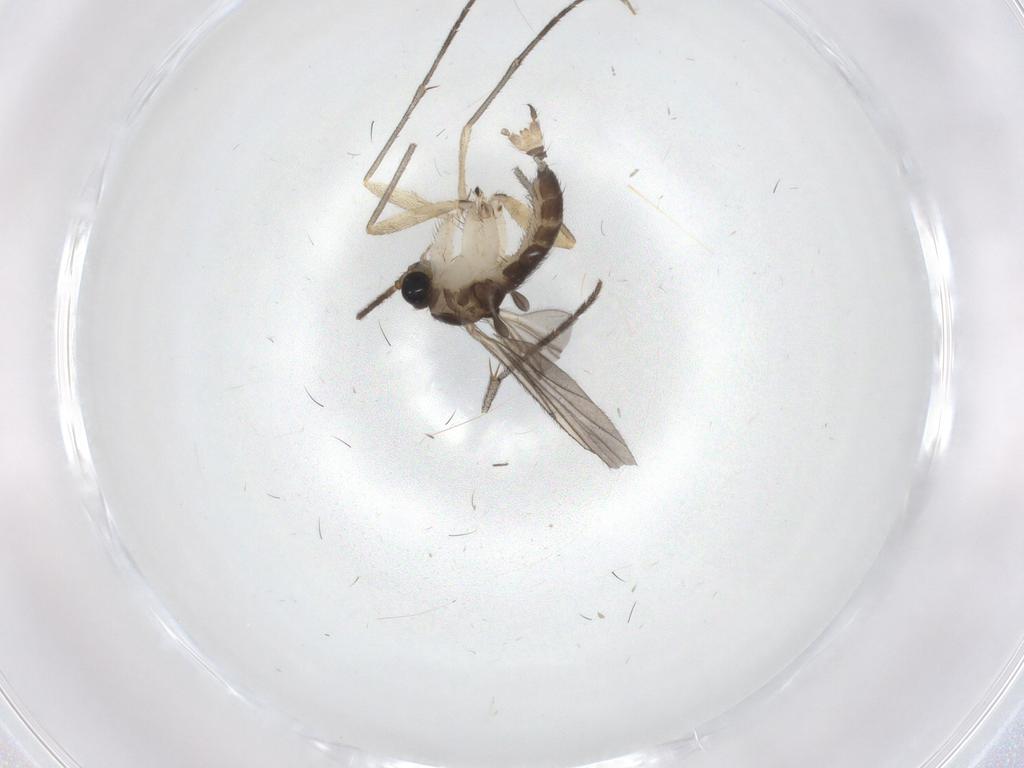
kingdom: Animalia
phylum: Arthropoda
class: Insecta
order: Diptera
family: Sciaridae
